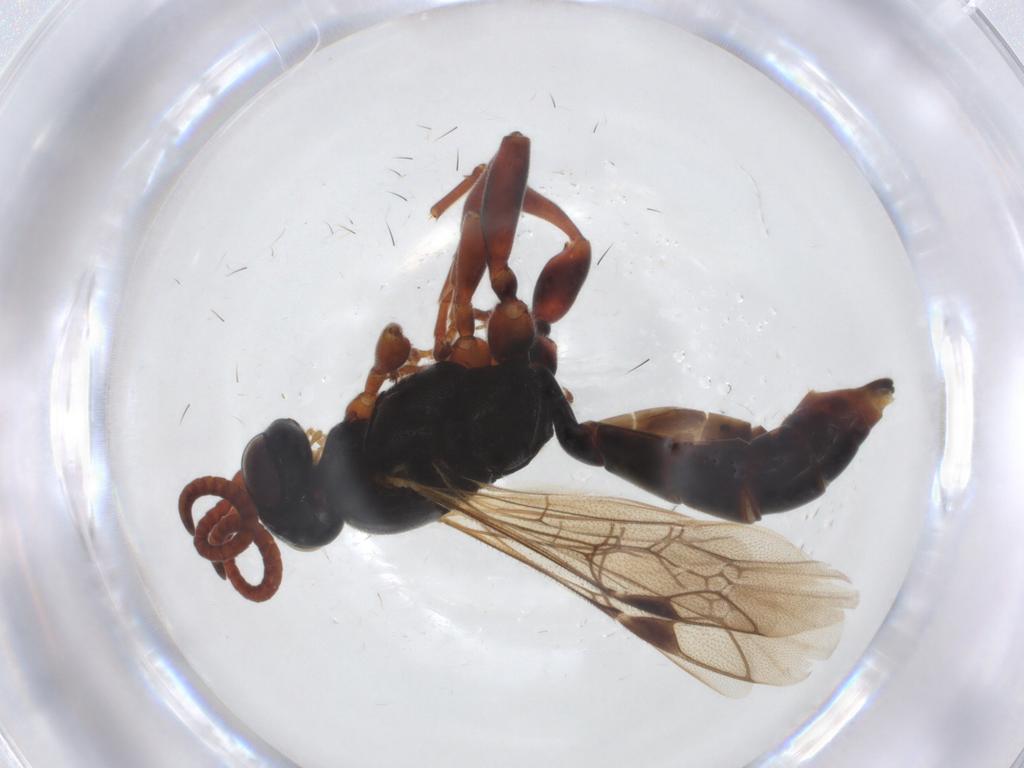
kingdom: Animalia
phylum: Arthropoda
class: Insecta
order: Hymenoptera
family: Ichneumonidae
